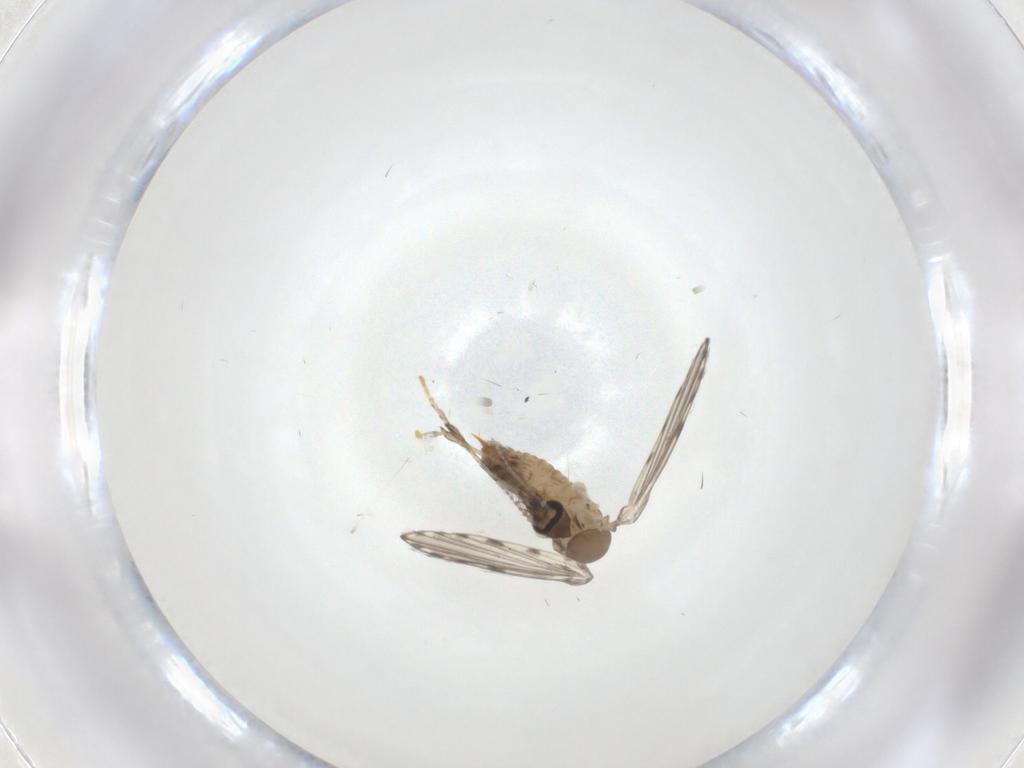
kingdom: Animalia
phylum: Arthropoda
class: Insecta
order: Diptera
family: Psychodidae
